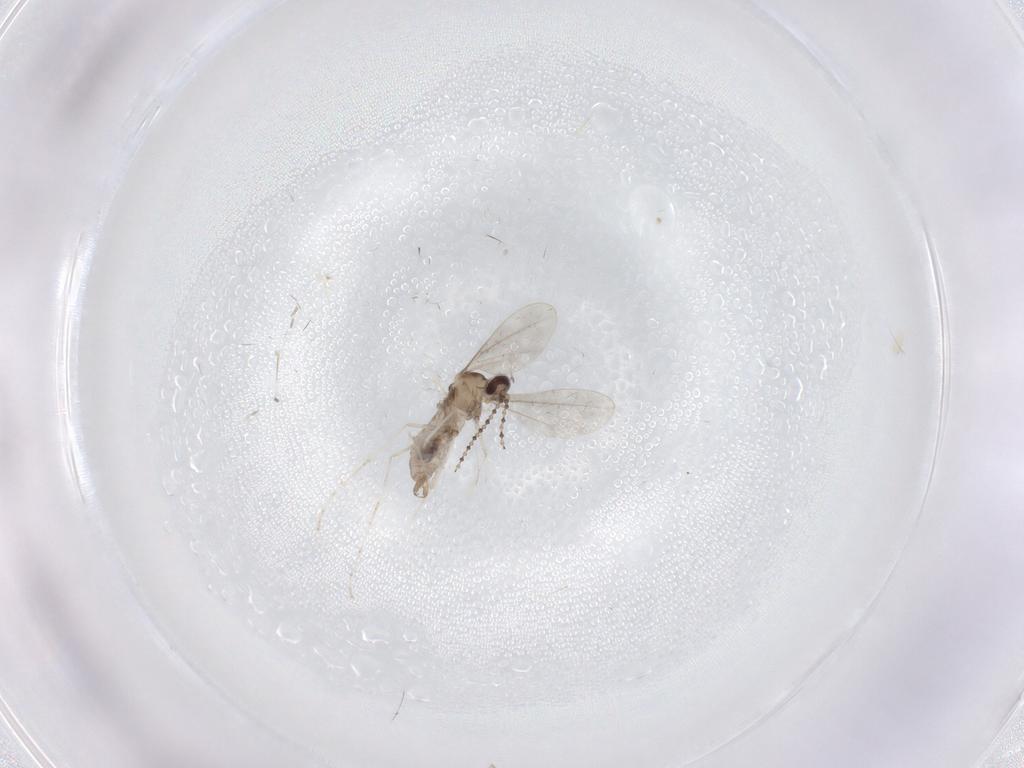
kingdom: Animalia
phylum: Arthropoda
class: Insecta
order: Diptera
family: Cecidomyiidae
